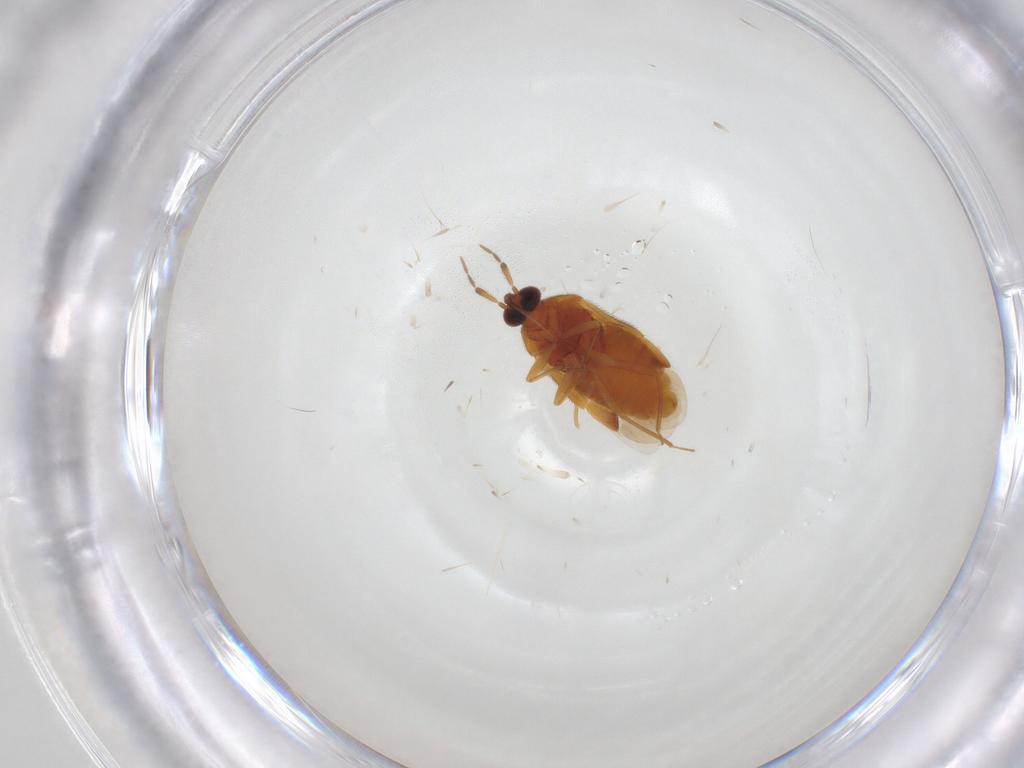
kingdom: Animalia
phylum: Arthropoda
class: Insecta
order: Hemiptera
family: Anthocoridae
